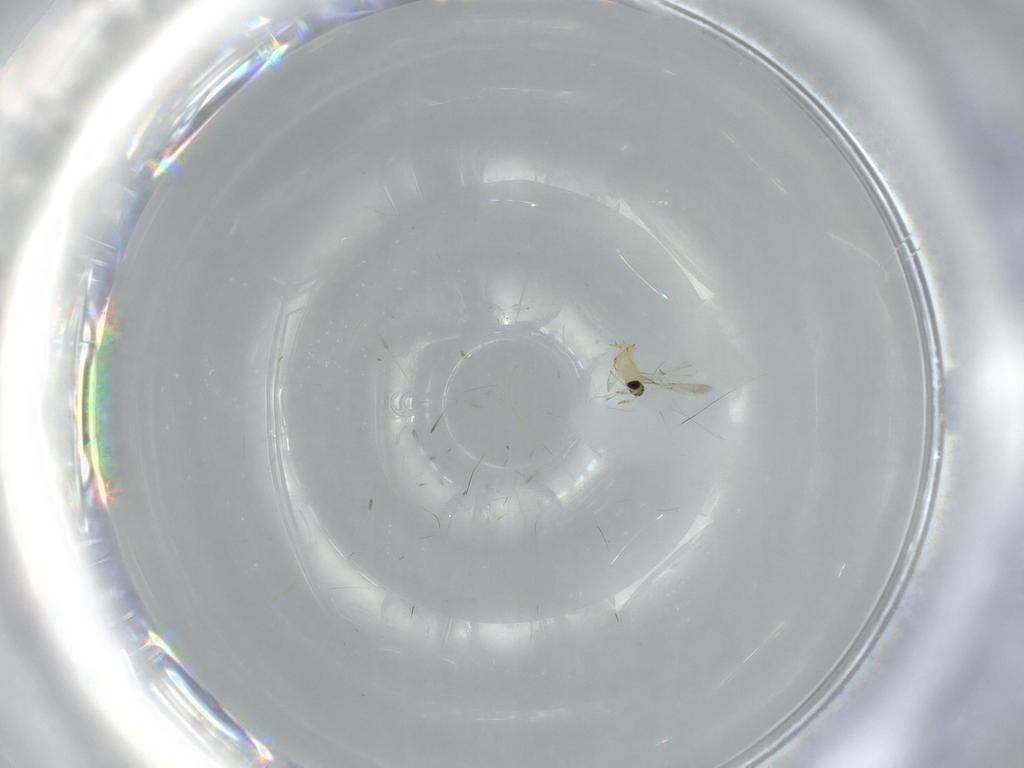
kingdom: Animalia
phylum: Arthropoda
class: Insecta
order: Hymenoptera
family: Trichogrammatidae
